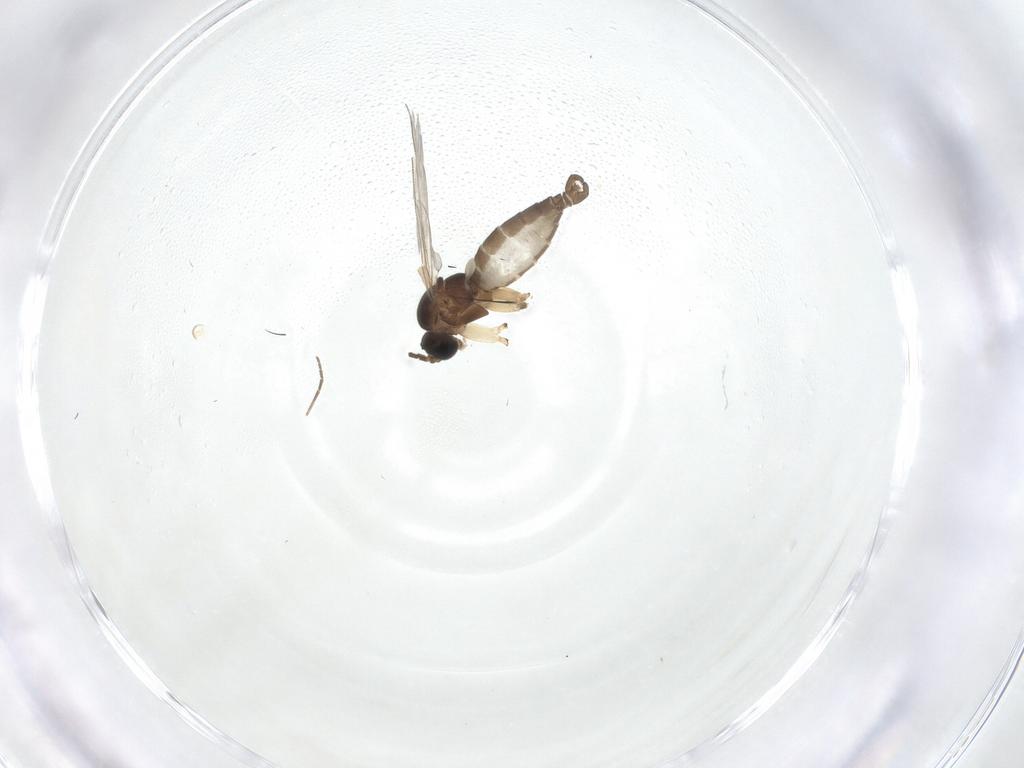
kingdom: Animalia
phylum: Arthropoda
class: Insecta
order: Diptera
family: Sciaridae
